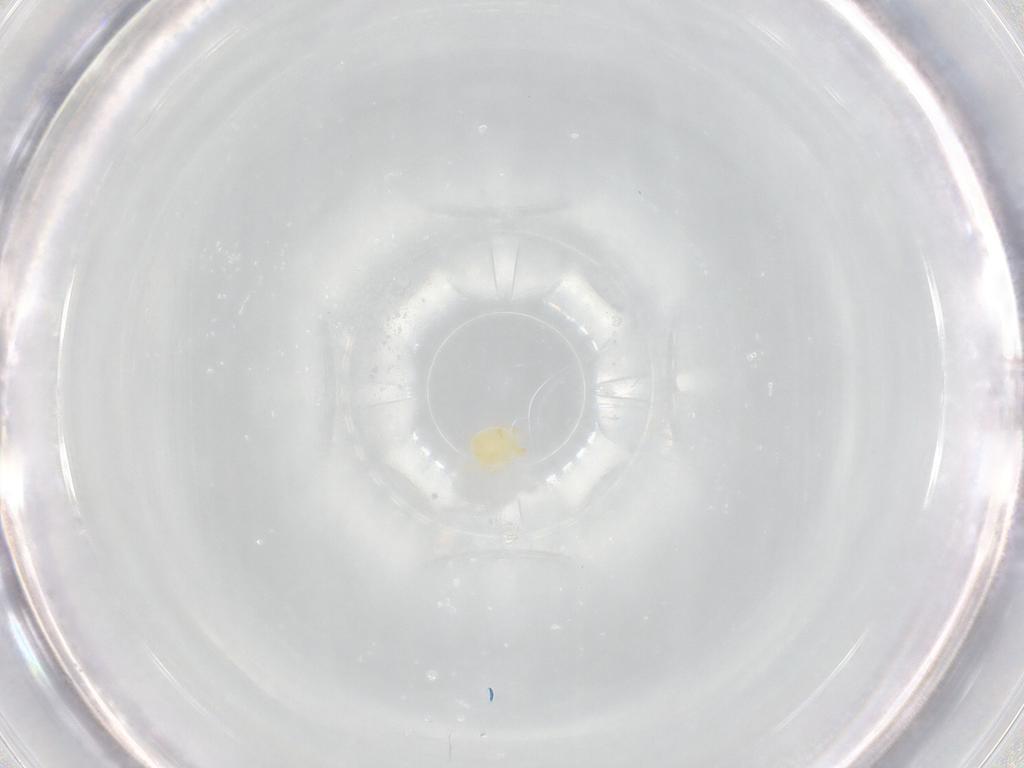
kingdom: Animalia
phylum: Arthropoda
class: Arachnida
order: Trombidiformes
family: Hydryphantidae
